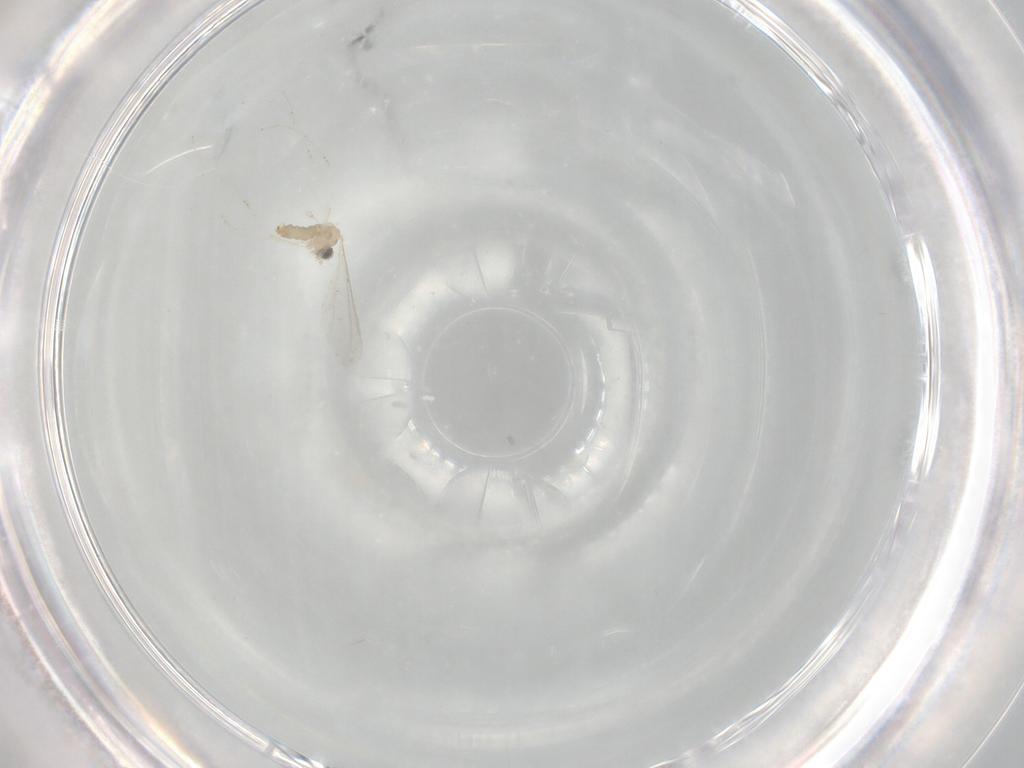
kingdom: Animalia
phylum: Arthropoda
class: Insecta
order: Diptera
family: Cecidomyiidae
